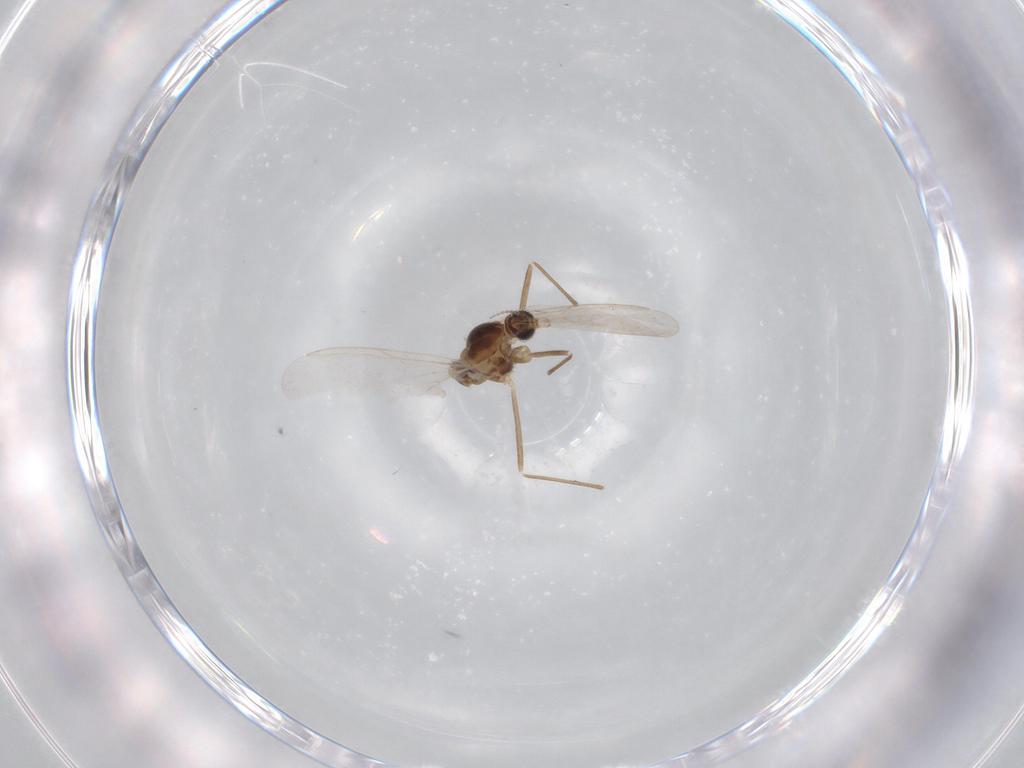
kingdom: Animalia
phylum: Arthropoda
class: Insecta
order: Diptera
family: Cecidomyiidae
